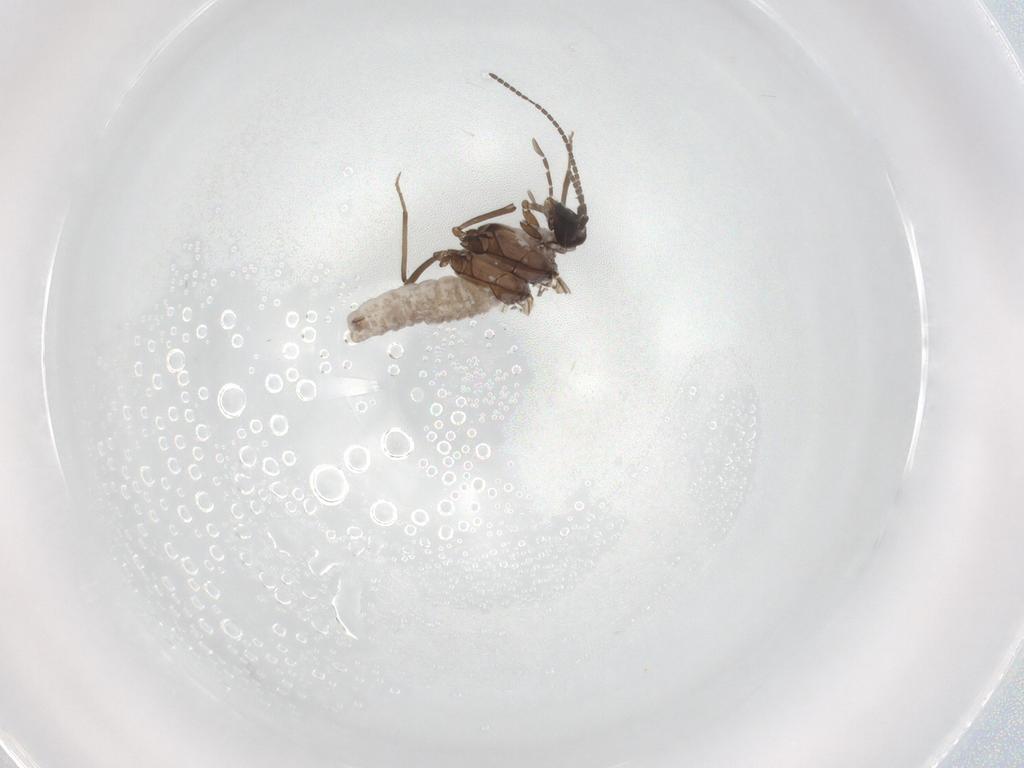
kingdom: Animalia
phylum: Arthropoda
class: Insecta
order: Neuroptera
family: Coniopterygidae
